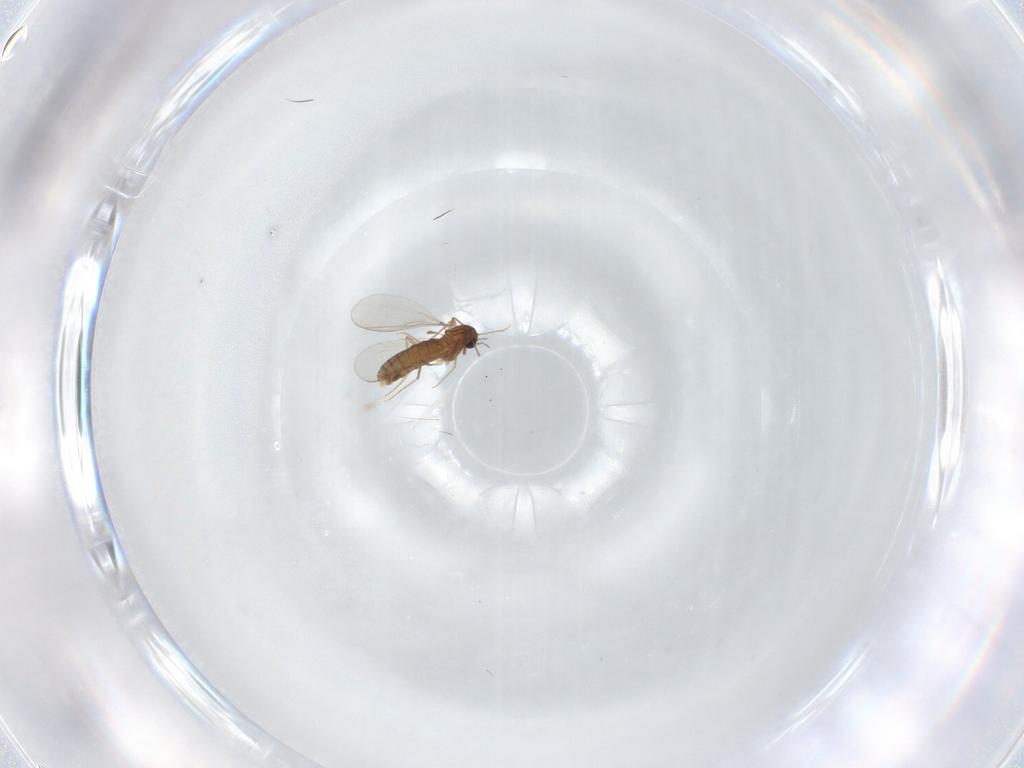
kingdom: Animalia
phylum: Arthropoda
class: Insecta
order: Diptera
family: Chironomidae
